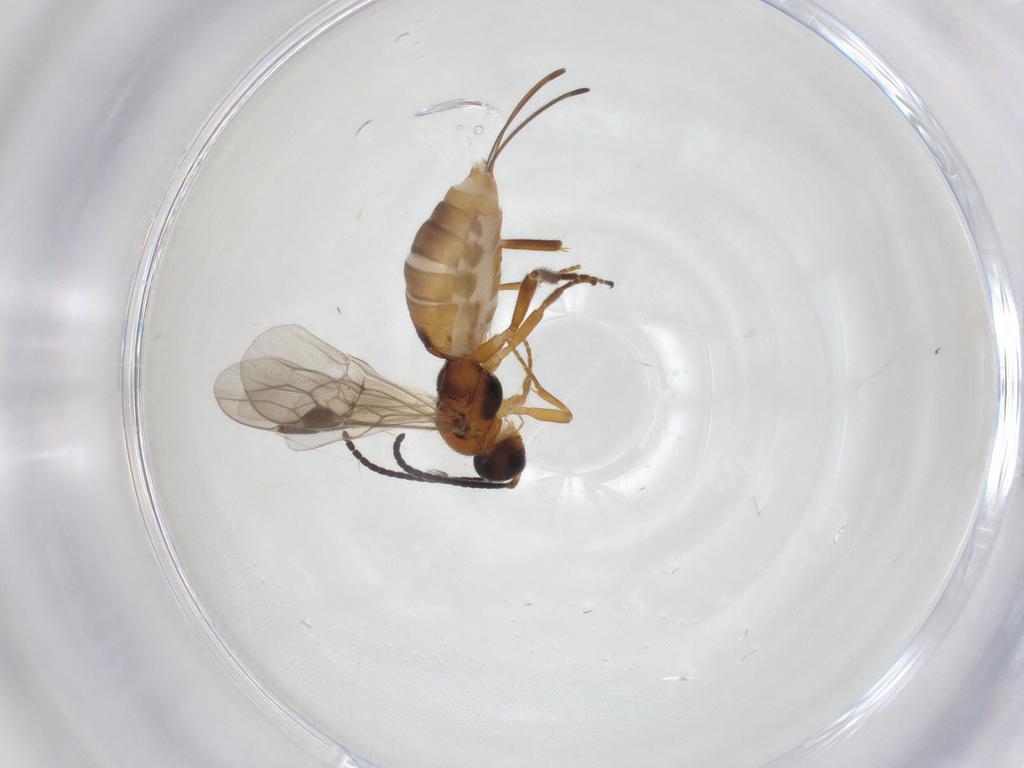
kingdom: Animalia
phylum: Arthropoda
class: Insecta
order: Hymenoptera
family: Braconidae
